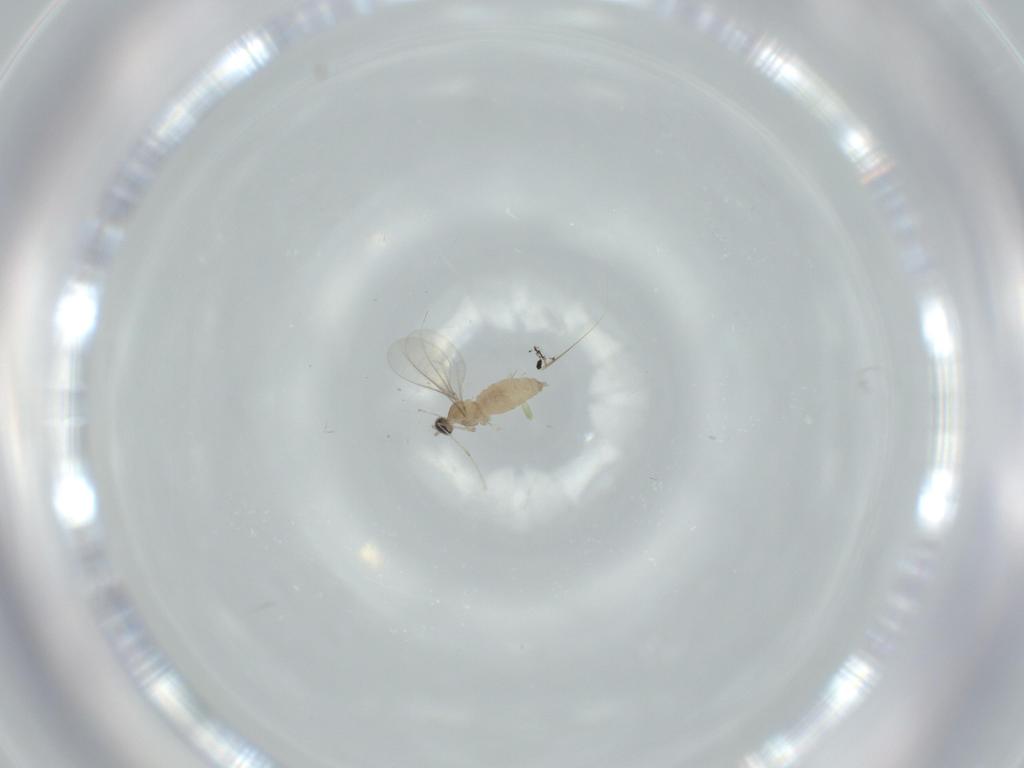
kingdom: Animalia
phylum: Arthropoda
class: Insecta
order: Diptera
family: Cecidomyiidae
